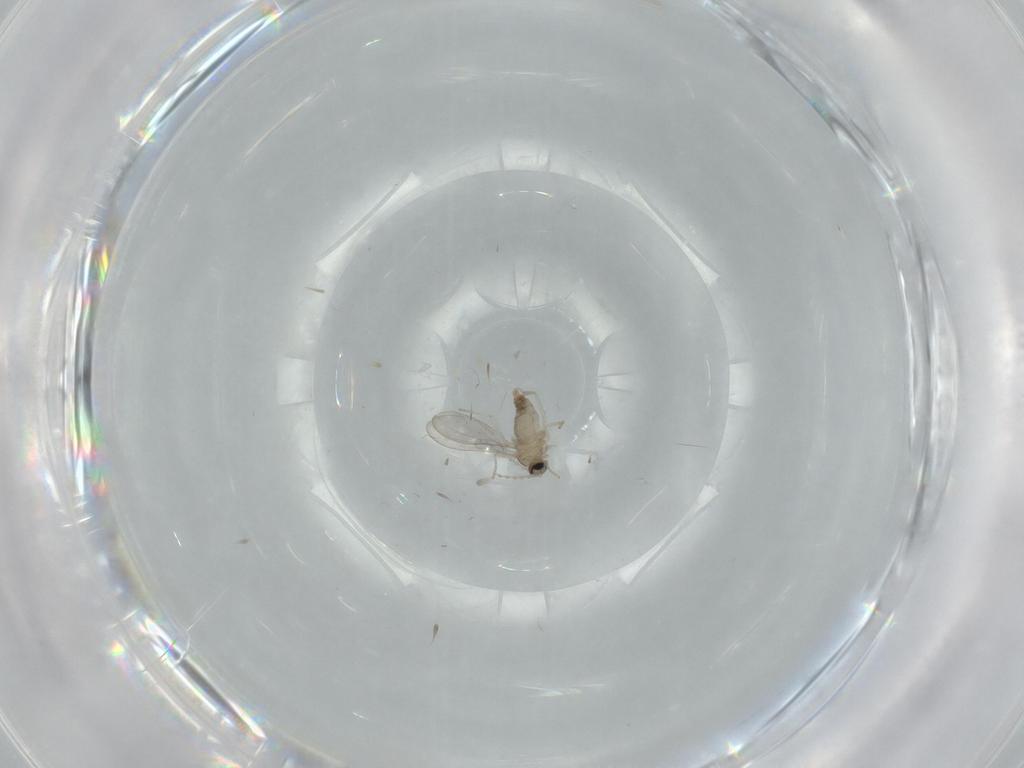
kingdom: Animalia
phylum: Arthropoda
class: Insecta
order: Diptera
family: Cecidomyiidae
